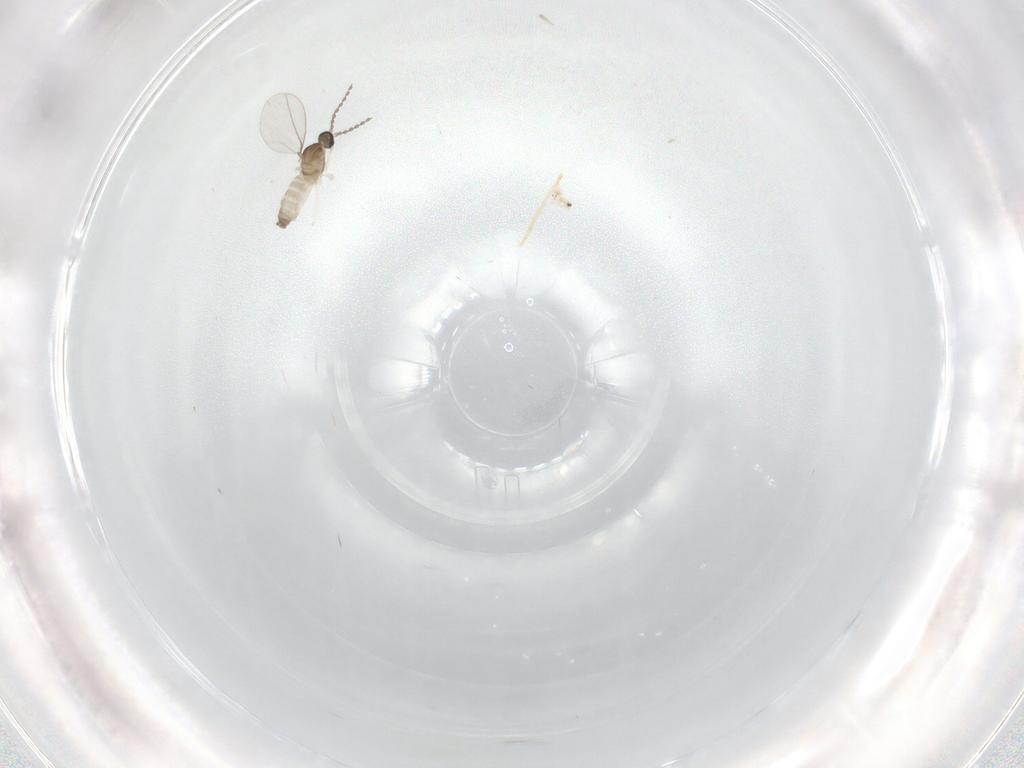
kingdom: Animalia
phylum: Arthropoda
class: Insecta
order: Diptera
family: Cecidomyiidae
